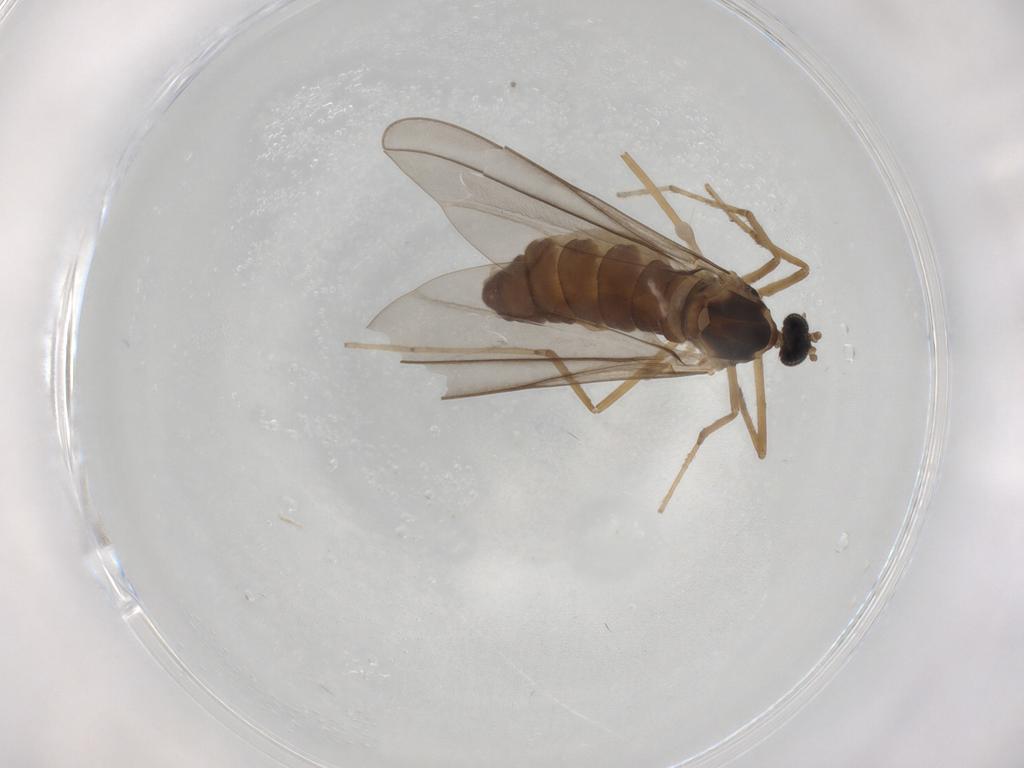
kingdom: Animalia
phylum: Arthropoda
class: Insecta
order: Diptera
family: Cecidomyiidae
